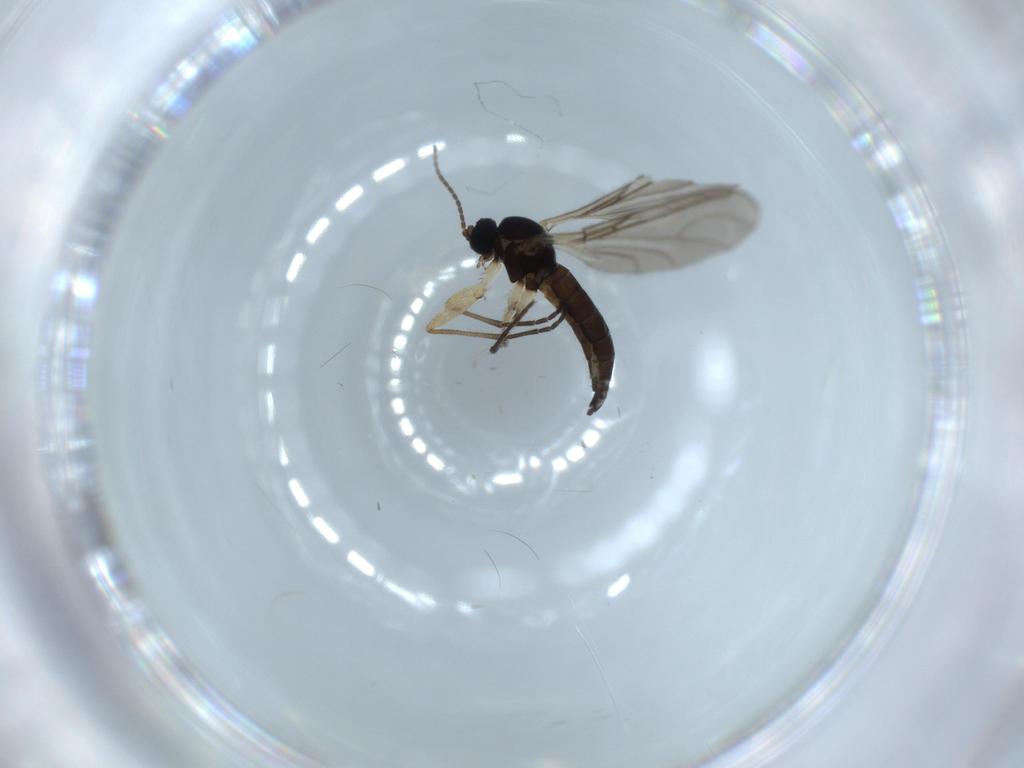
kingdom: Animalia
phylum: Arthropoda
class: Insecta
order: Diptera
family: Sciaridae
